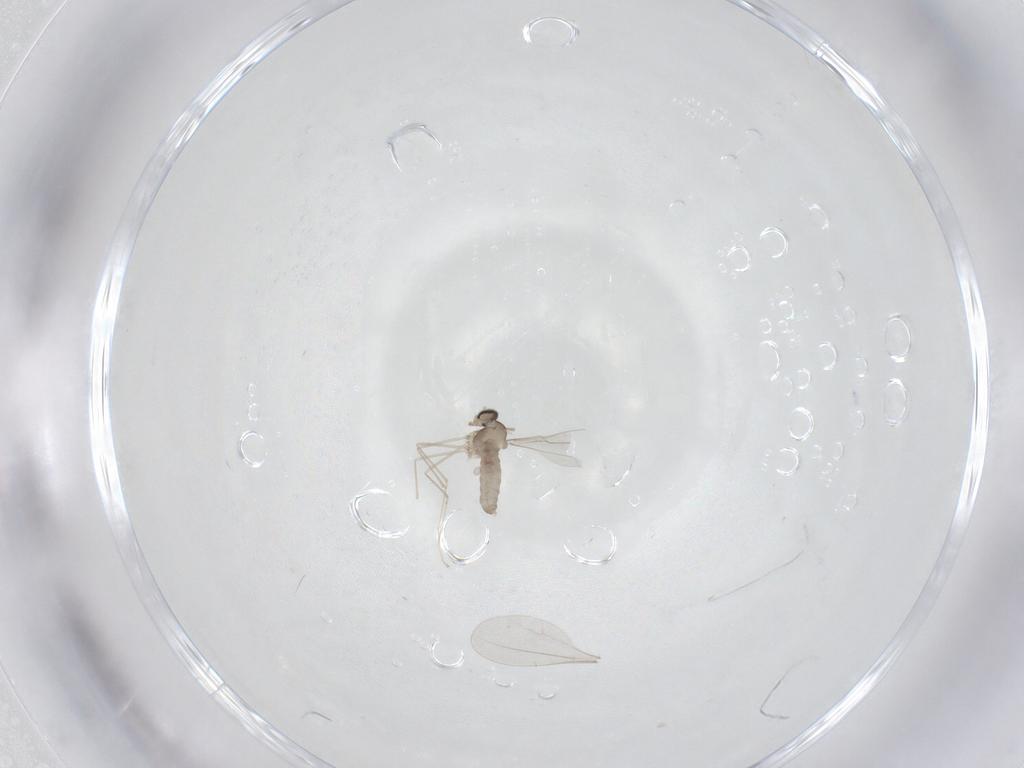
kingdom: Animalia
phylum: Arthropoda
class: Insecta
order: Diptera
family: Cecidomyiidae
